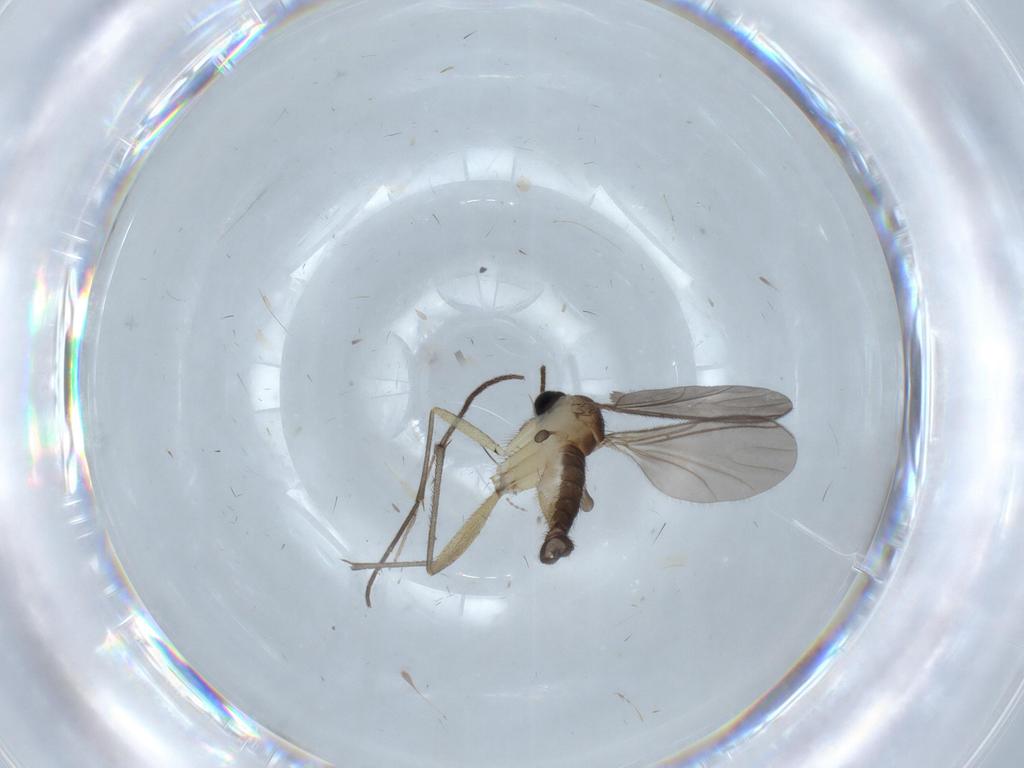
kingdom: Animalia
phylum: Arthropoda
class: Insecta
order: Diptera
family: Sciaridae
